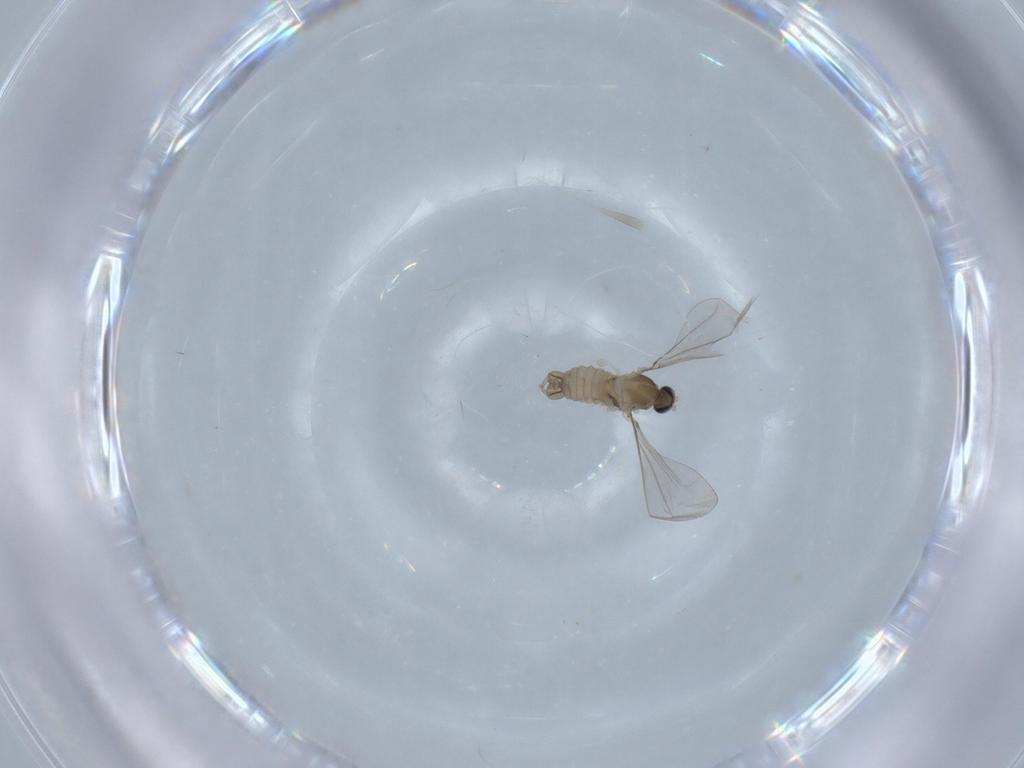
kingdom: Animalia
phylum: Arthropoda
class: Insecta
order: Diptera
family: Cecidomyiidae
